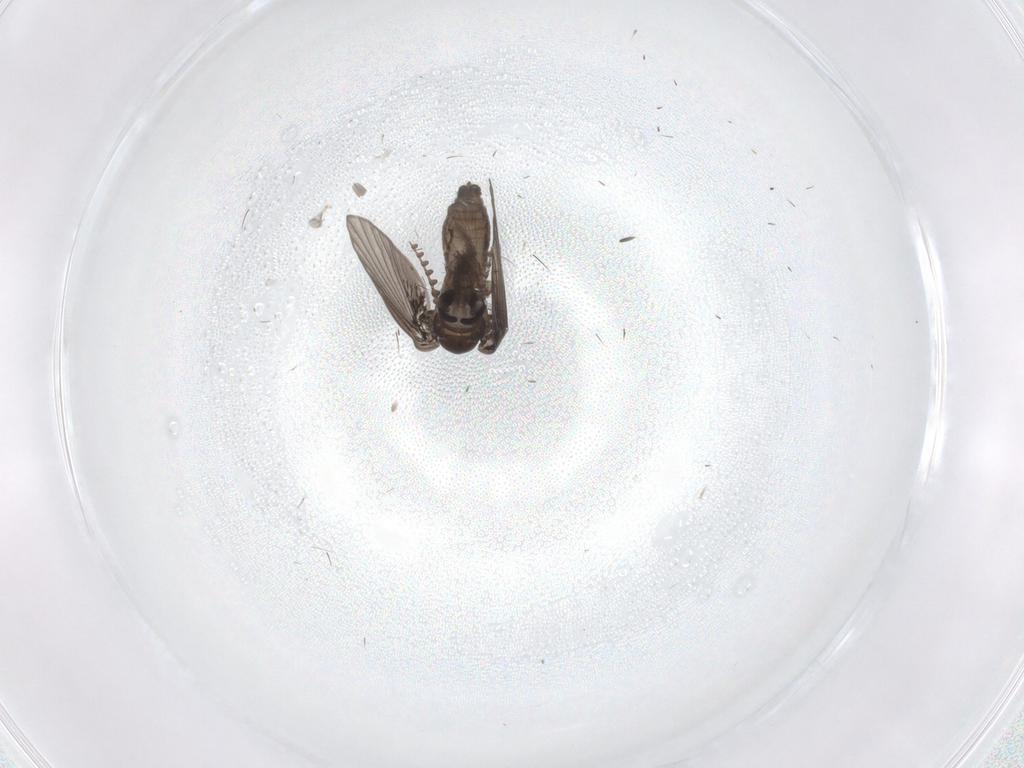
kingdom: Animalia
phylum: Arthropoda
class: Insecta
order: Diptera
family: Psychodidae
